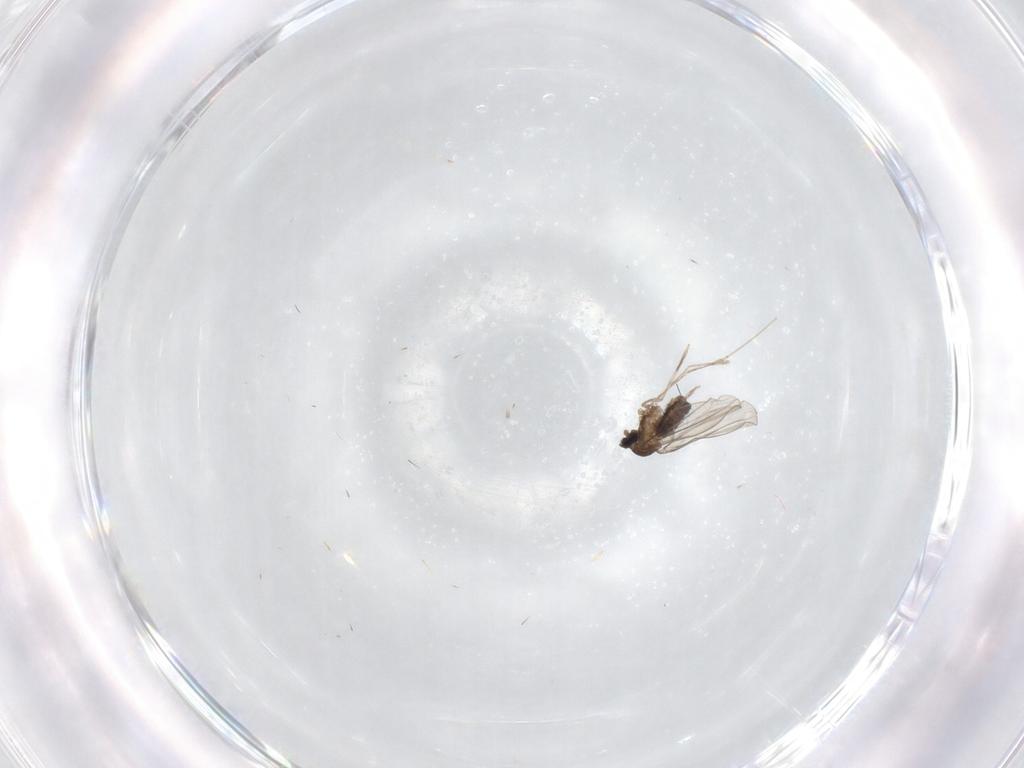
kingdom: Animalia
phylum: Arthropoda
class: Insecta
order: Diptera
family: Cecidomyiidae
